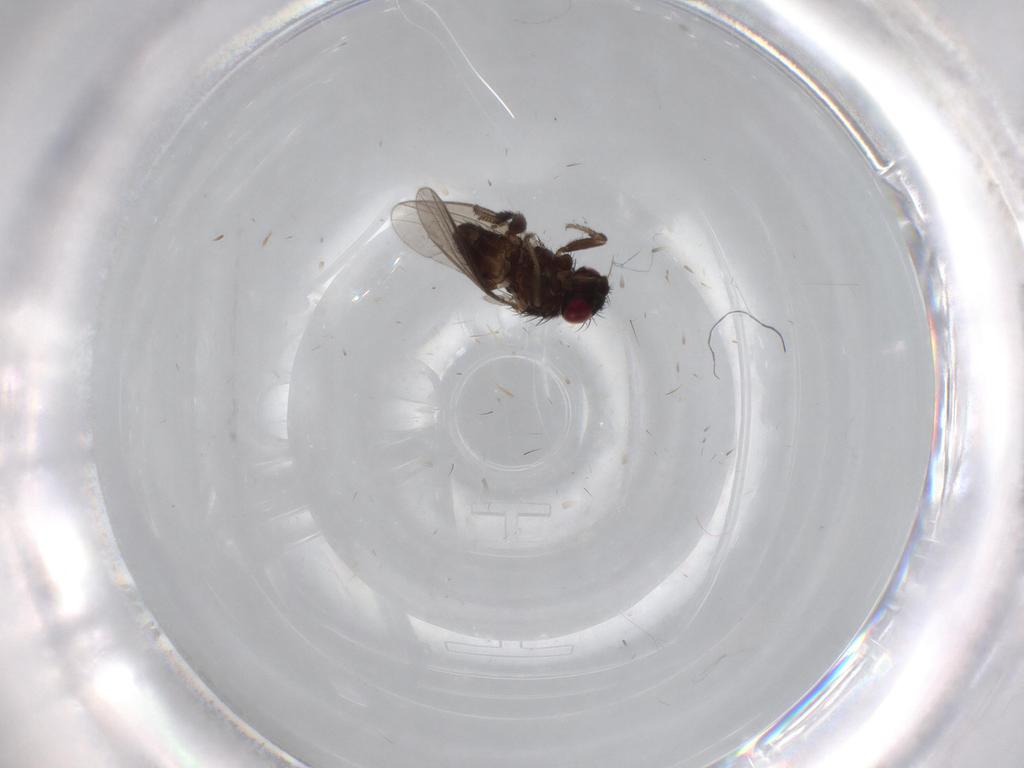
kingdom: Animalia
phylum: Arthropoda
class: Insecta
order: Diptera
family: Milichiidae
